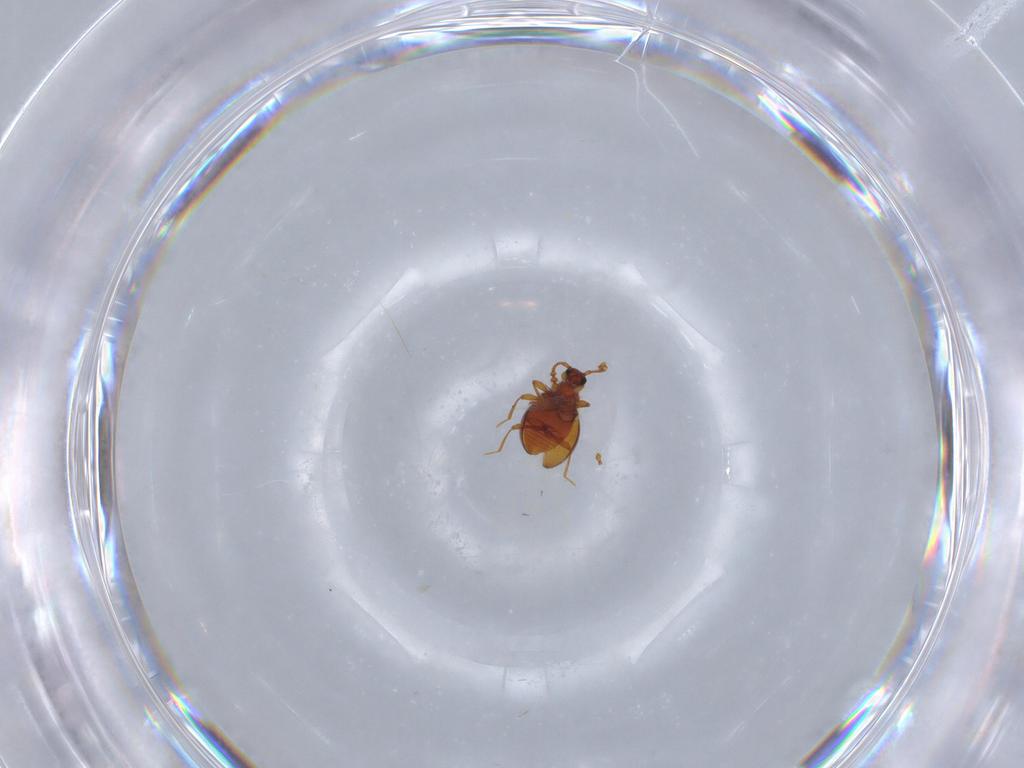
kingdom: Animalia
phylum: Arthropoda
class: Insecta
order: Coleoptera
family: Staphylinidae
